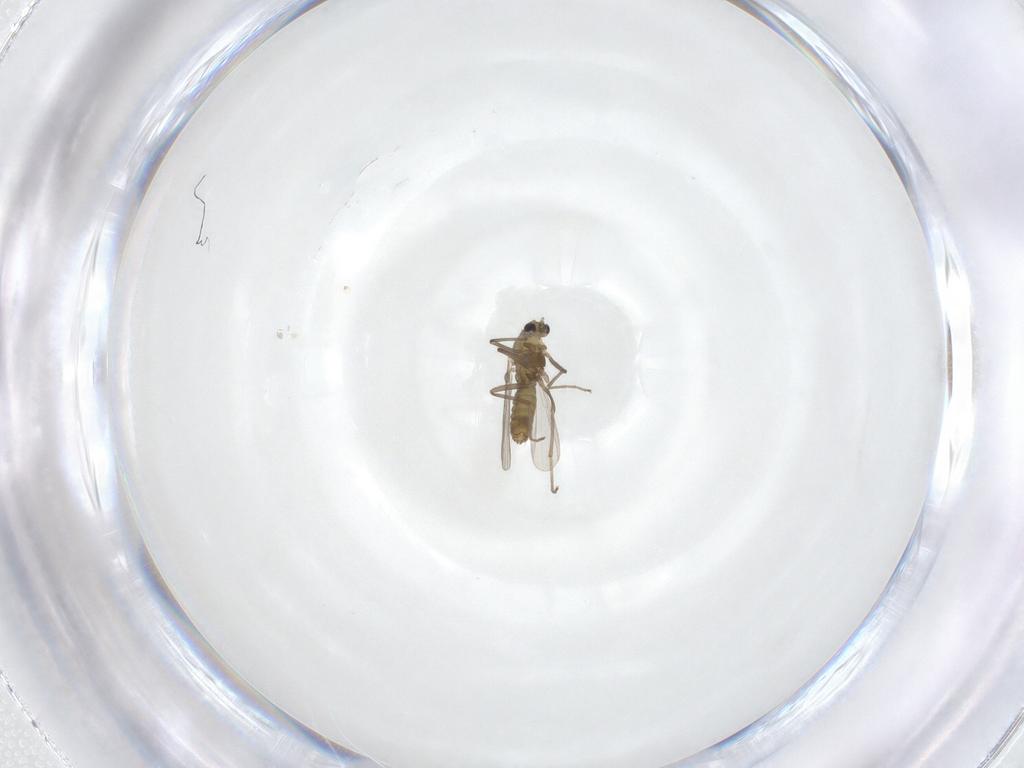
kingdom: Animalia
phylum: Arthropoda
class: Insecta
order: Diptera
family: Chironomidae
